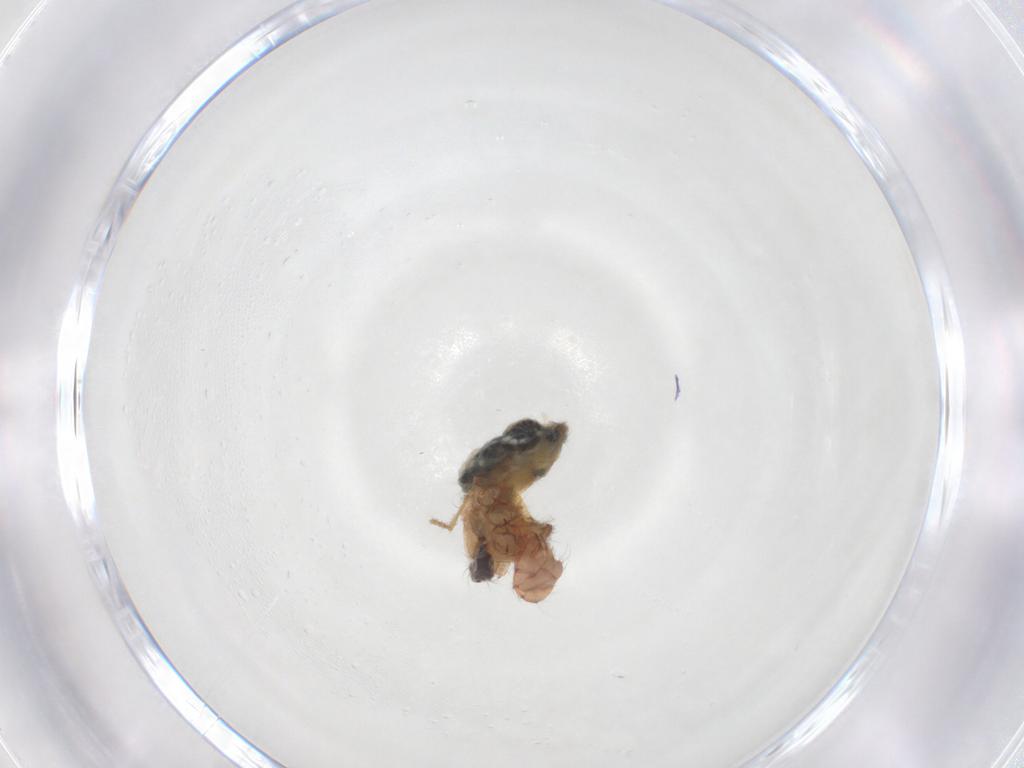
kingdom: Animalia
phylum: Arthropoda
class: Arachnida
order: Araneae
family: Pholcidae
